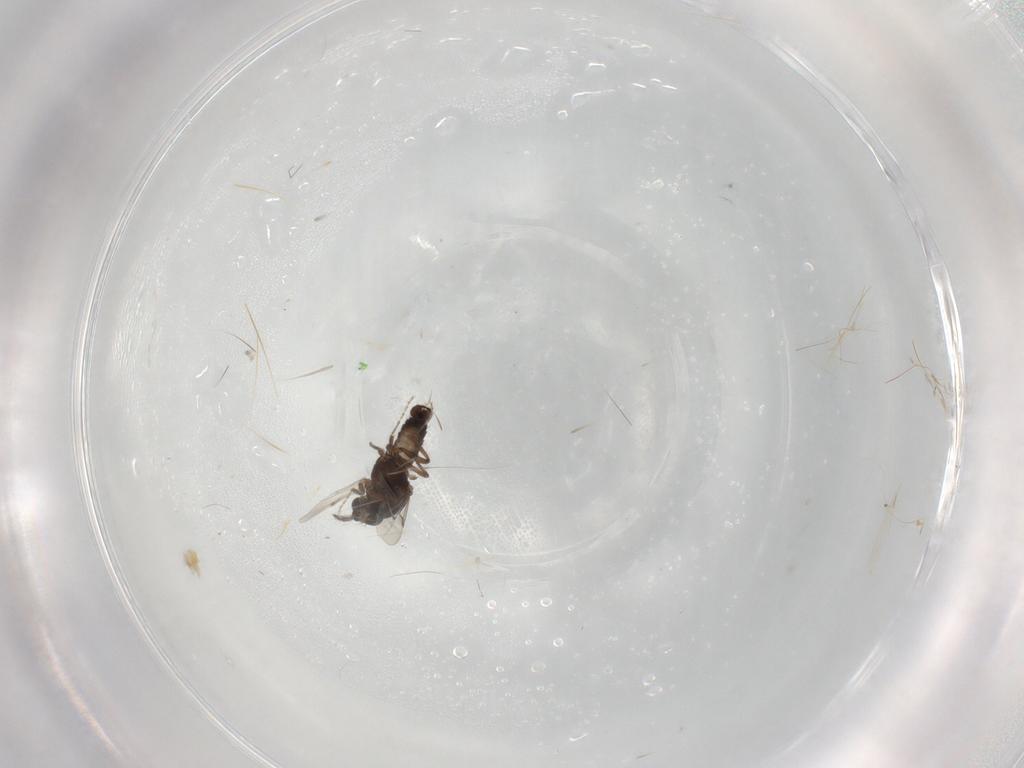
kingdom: Animalia
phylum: Arthropoda
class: Insecta
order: Diptera
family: Ceratopogonidae
